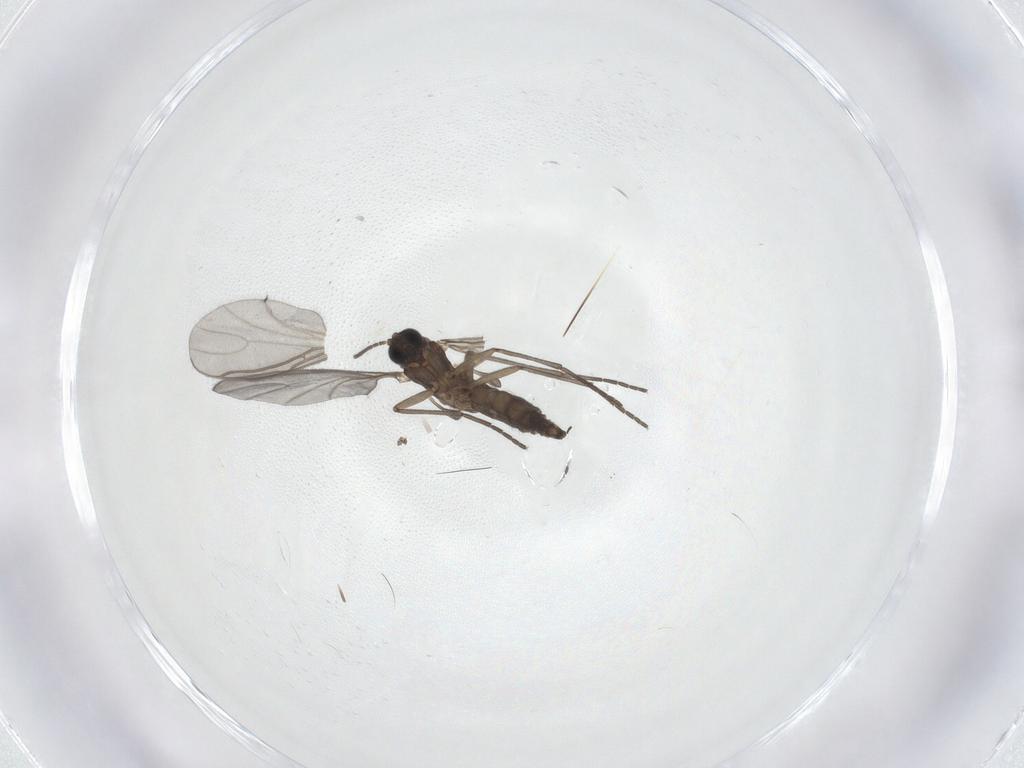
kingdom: Animalia
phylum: Arthropoda
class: Insecta
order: Diptera
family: Sciaridae
